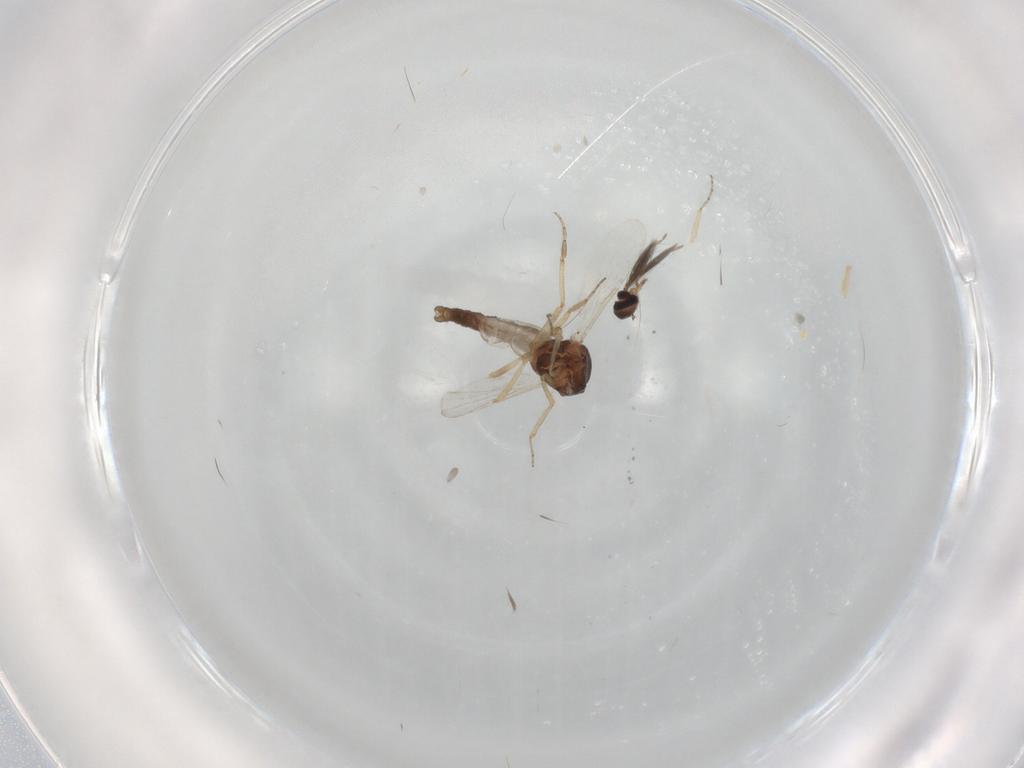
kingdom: Animalia
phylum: Arthropoda
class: Insecta
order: Diptera
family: Ceratopogonidae
